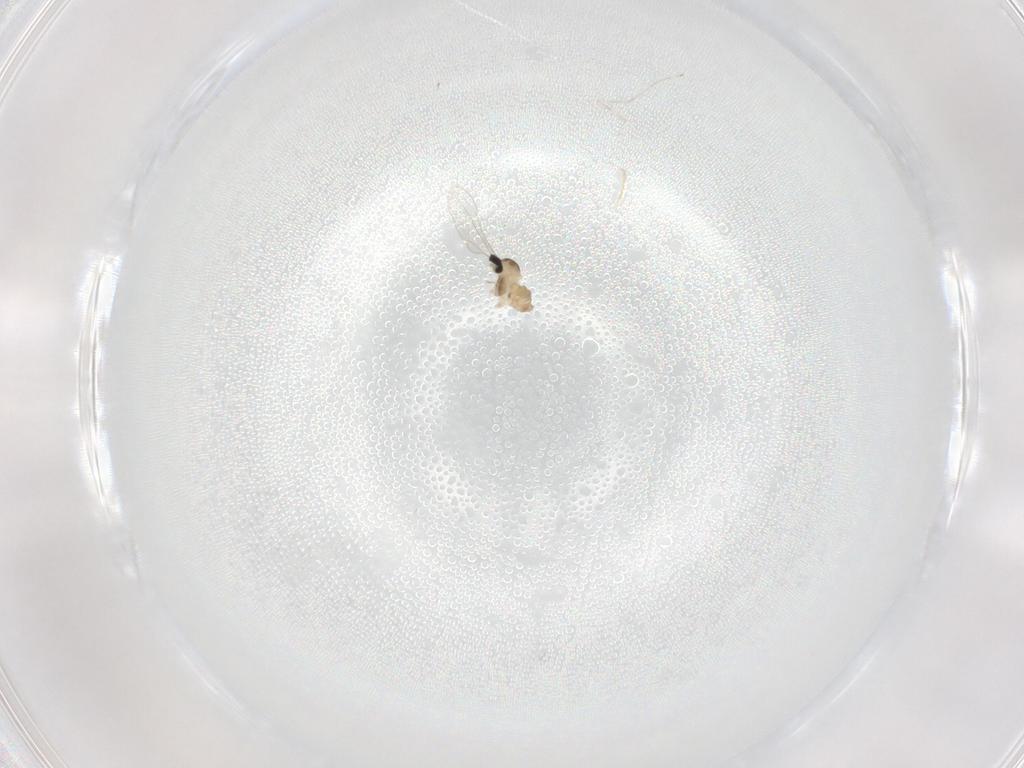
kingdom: Animalia
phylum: Arthropoda
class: Insecta
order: Diptera
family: Cecidomyiidae
